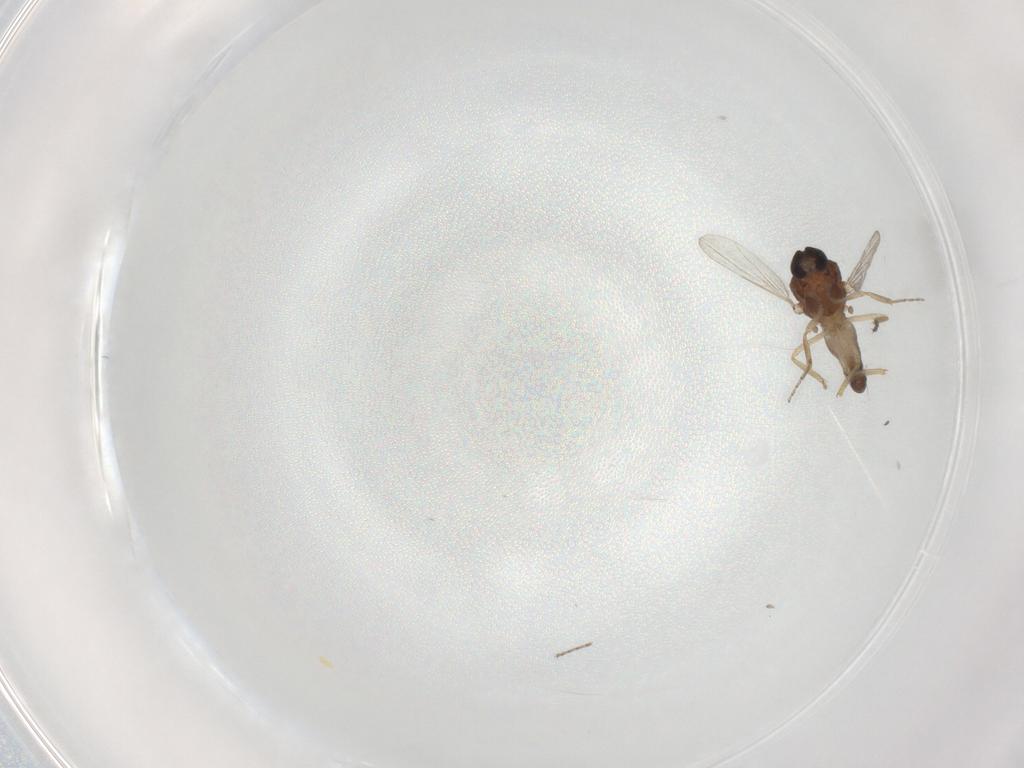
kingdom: Animalia
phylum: Arthropoda
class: Insecta
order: Diptera
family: Ceratopogonidae
